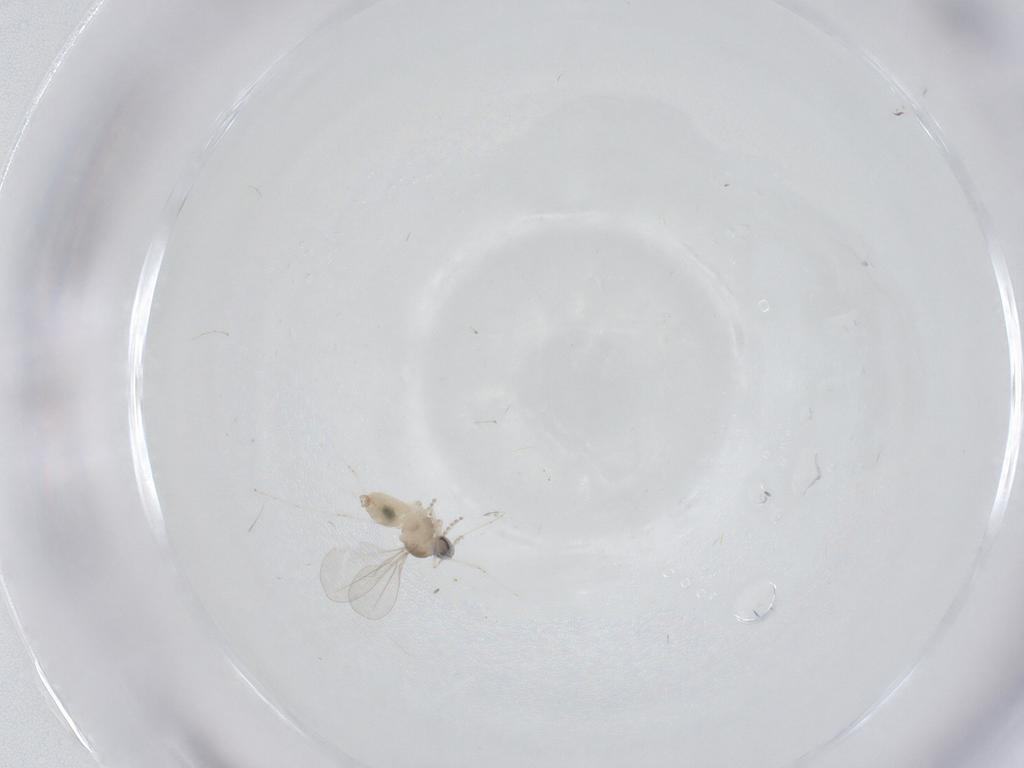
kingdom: Animalia
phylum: Arthropoda
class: Insecta
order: Diptera
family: Cecidomyiidae
